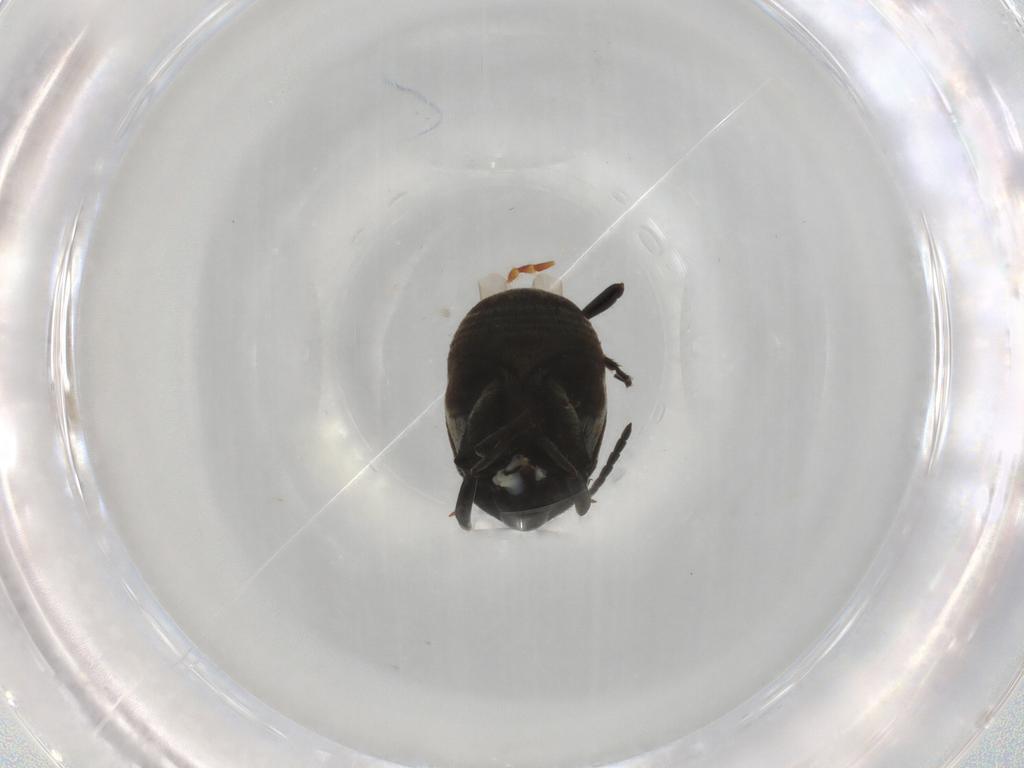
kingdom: Animalia
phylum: Arthropoda
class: Insecta
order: Coleoptera
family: Chrysomelidae
